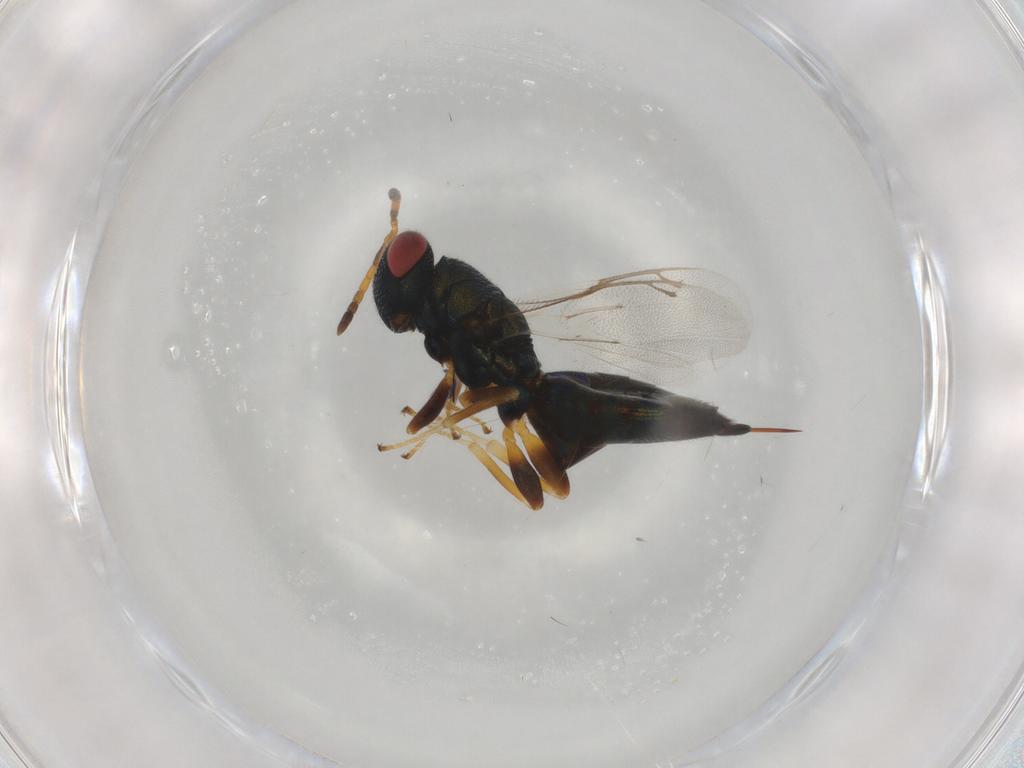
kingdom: Animalia
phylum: Arthropoda
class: Insecta
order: Hymenoptera
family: Pteromalidae
